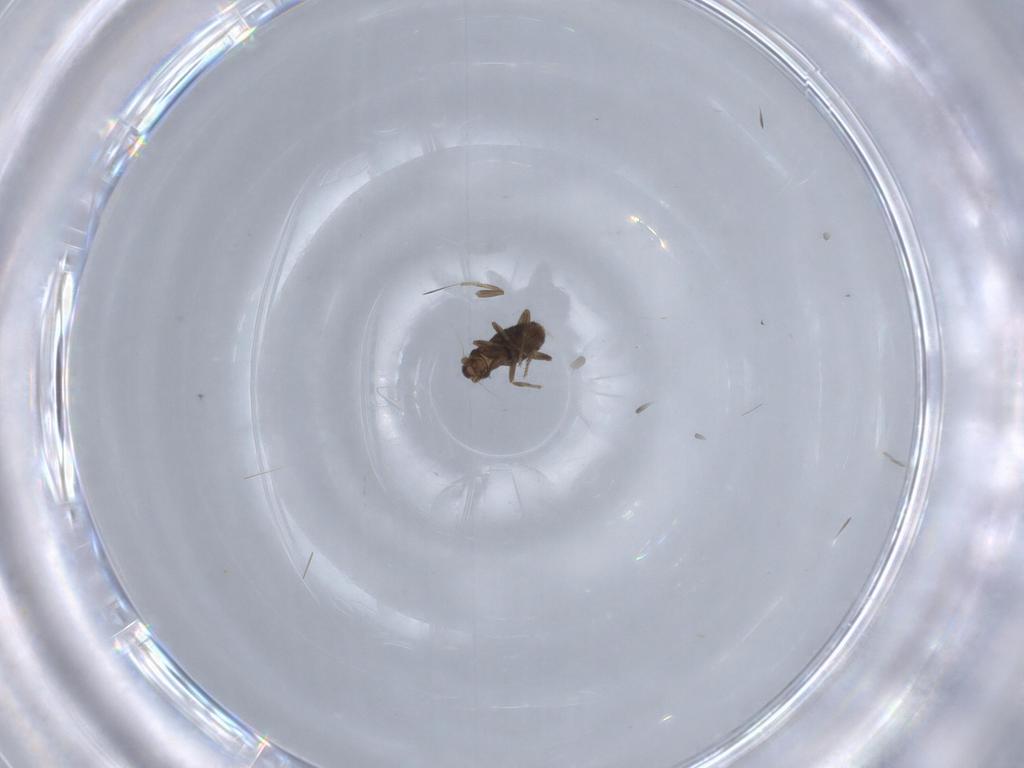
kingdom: Animalia
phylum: Arthropoda
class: Insecta
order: Diptera
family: Phoridae
